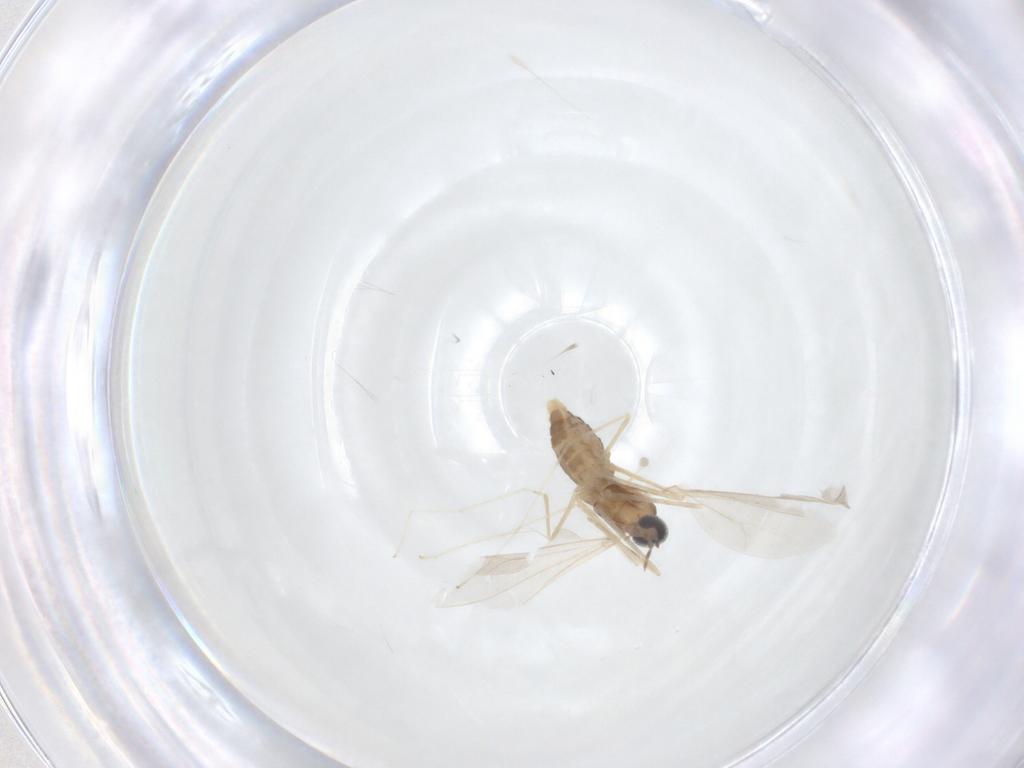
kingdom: Animalia
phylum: Arthropoda
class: Insecta
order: Diptera
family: Cecidomyiidae
